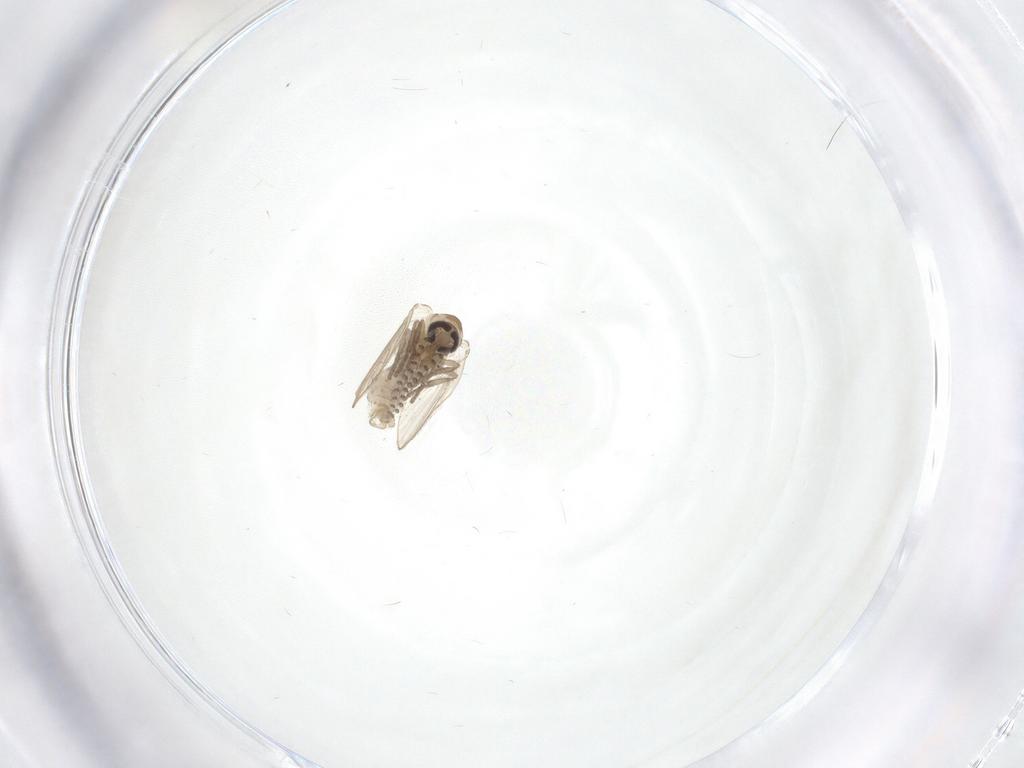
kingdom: Animalia
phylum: Arthropoda
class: Insecta
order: Diptera
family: Psychodidae
